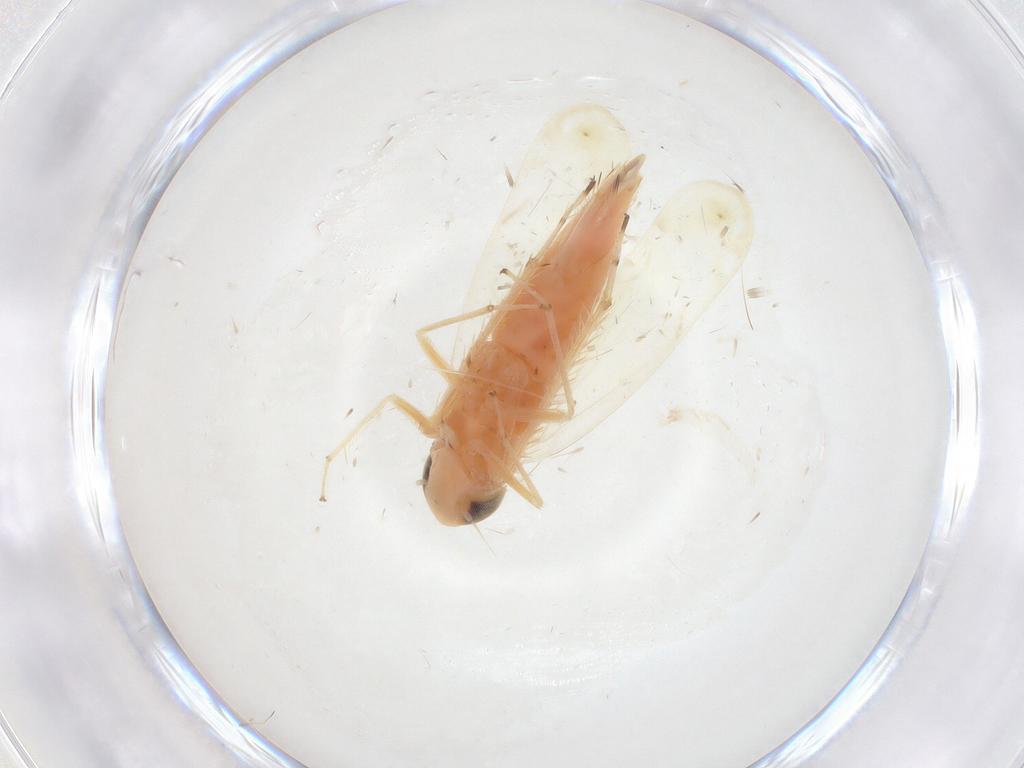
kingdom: Animalia
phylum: Arthropoda
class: Insecta
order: Hemiptera
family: Cicadellidae
